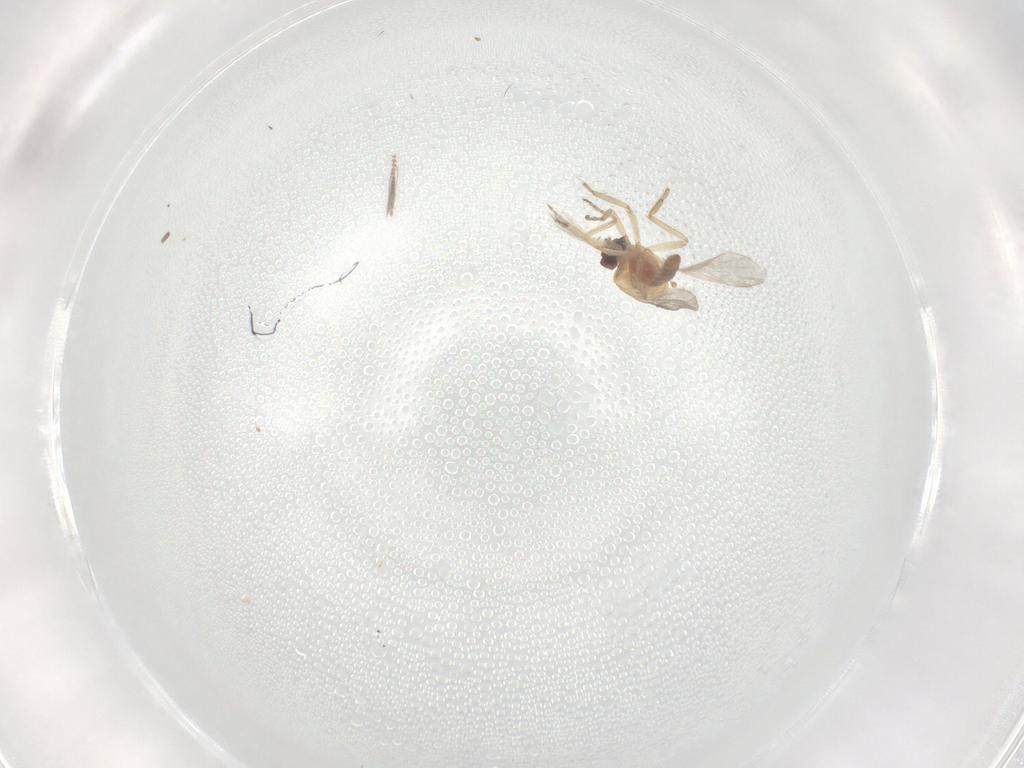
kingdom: Animalia
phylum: Arthropoda
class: Insecta
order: Diptera
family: Ceratopogonidae
